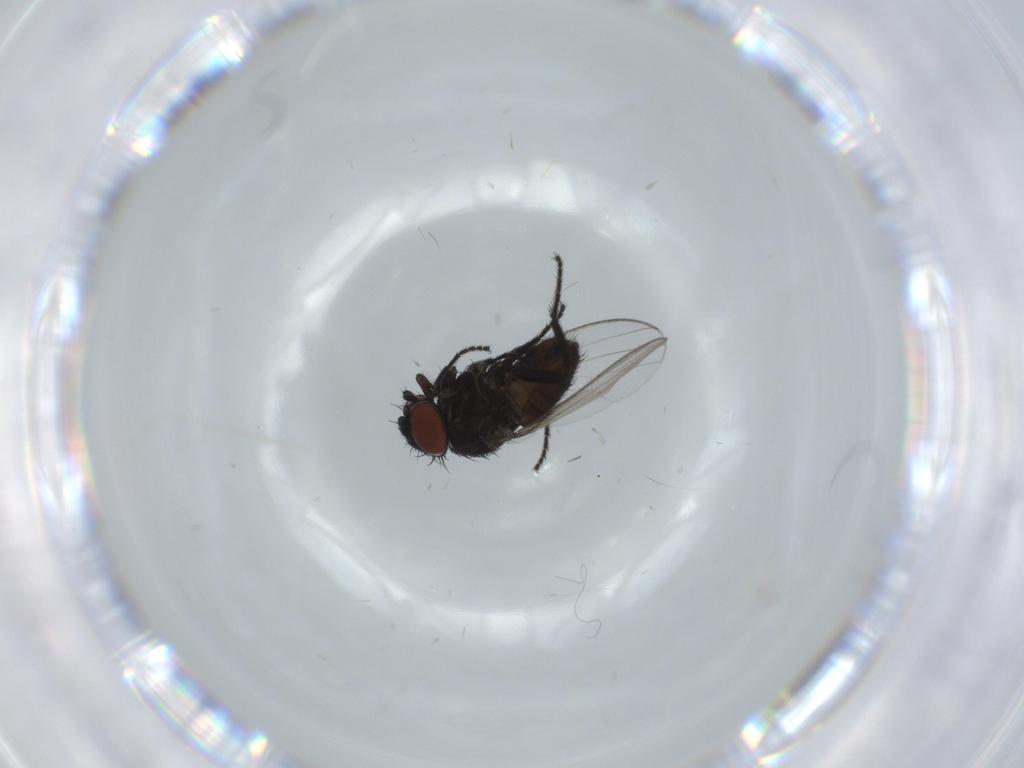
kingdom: Animalia
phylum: Arthropoda
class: Insecta
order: Diptera
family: Milichiidae
